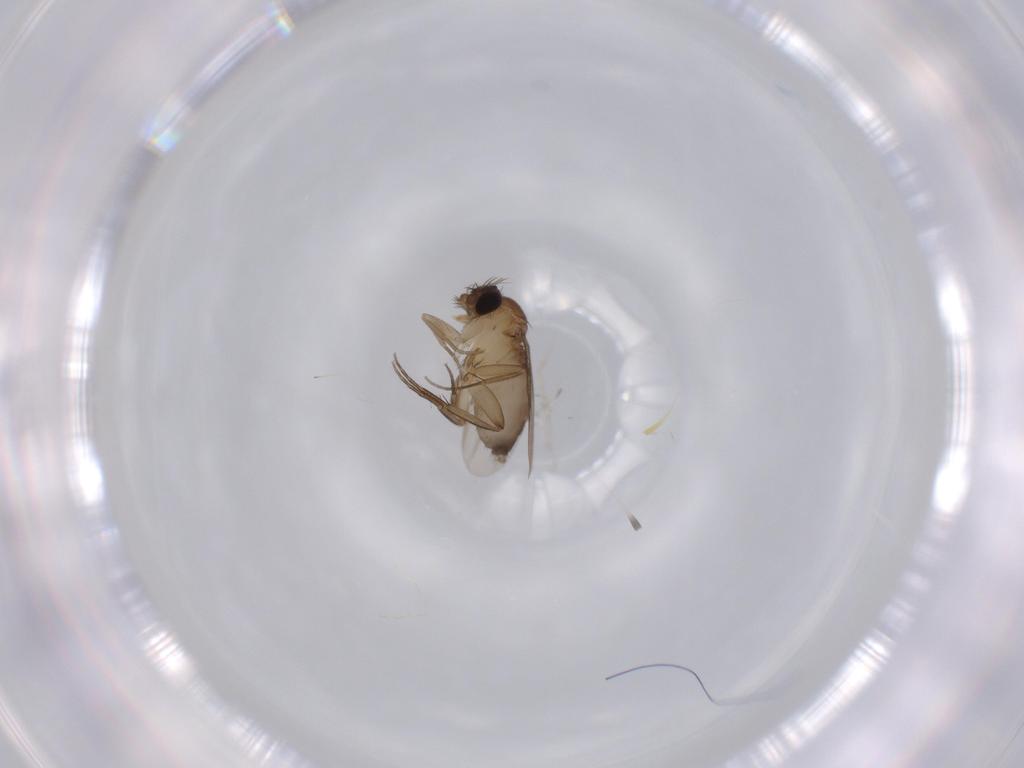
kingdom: Animalia
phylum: Arthropoda
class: Insecta
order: Diptera
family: Phoridae
